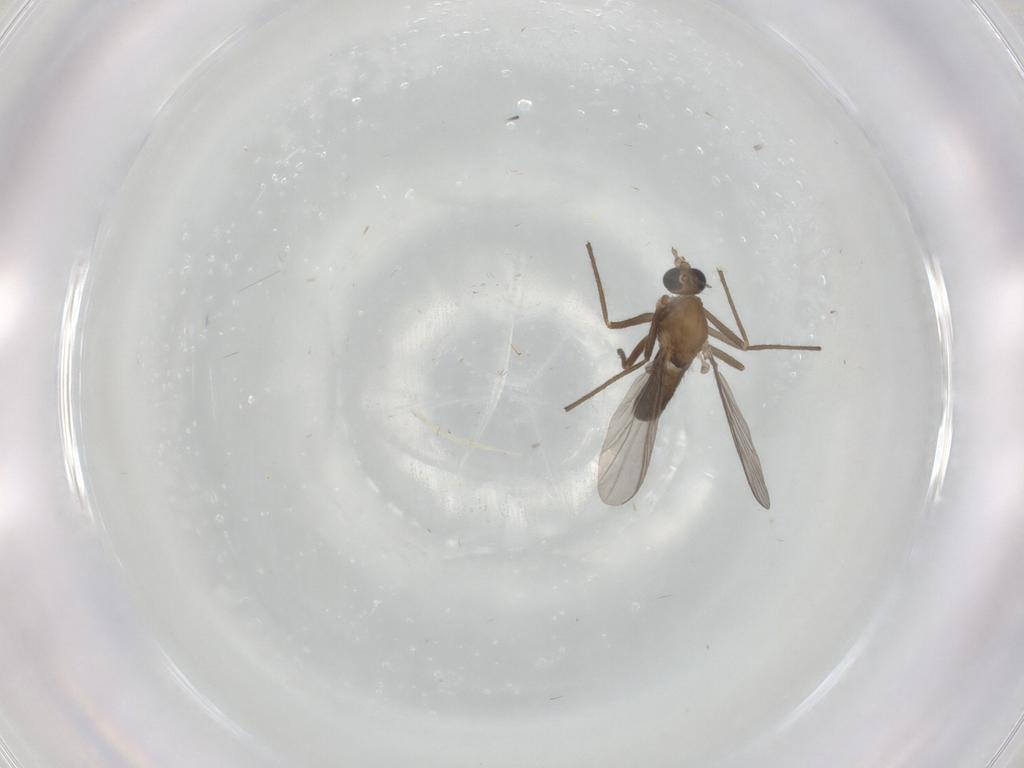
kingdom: Animalia
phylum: Arthropoda
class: Insecta
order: Diptera
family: Chironomidae
